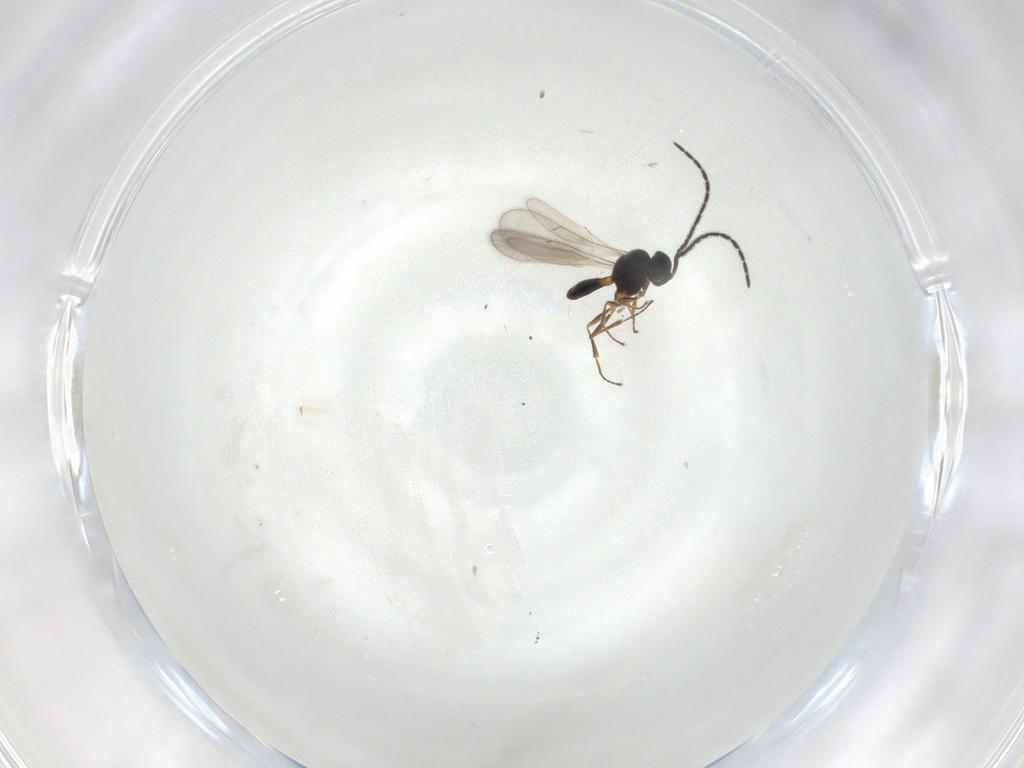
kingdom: Animalia
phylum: Arthropoda
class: Insecta
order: Hymenoptera
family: Scelionidae
